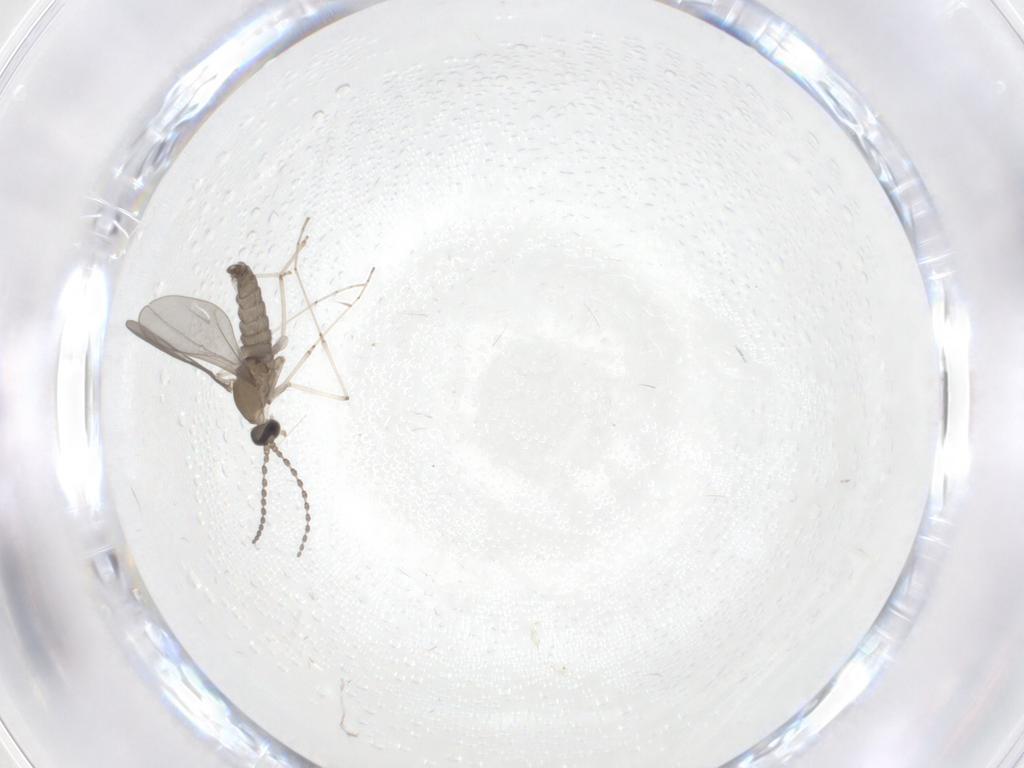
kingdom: Animalia
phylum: Arthropoda
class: Insecta
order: Diptera
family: Cecidomyiidae
